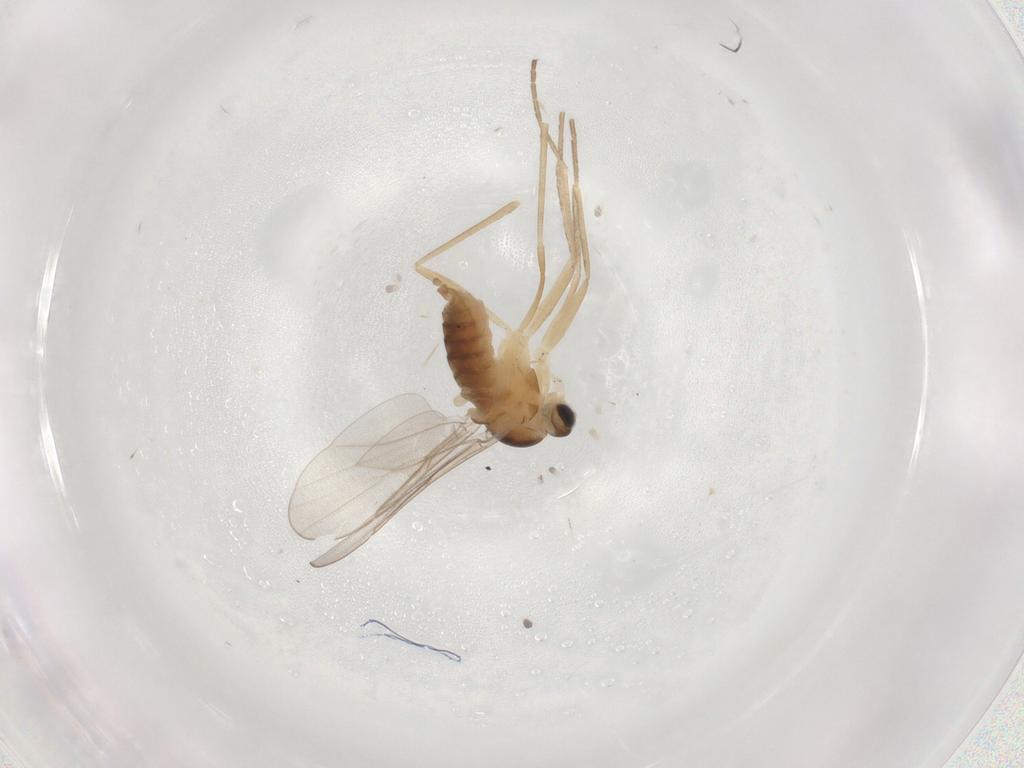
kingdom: Animalia
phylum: Arthropoda
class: Insecta
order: Diptera
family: Cecidomyiidae
